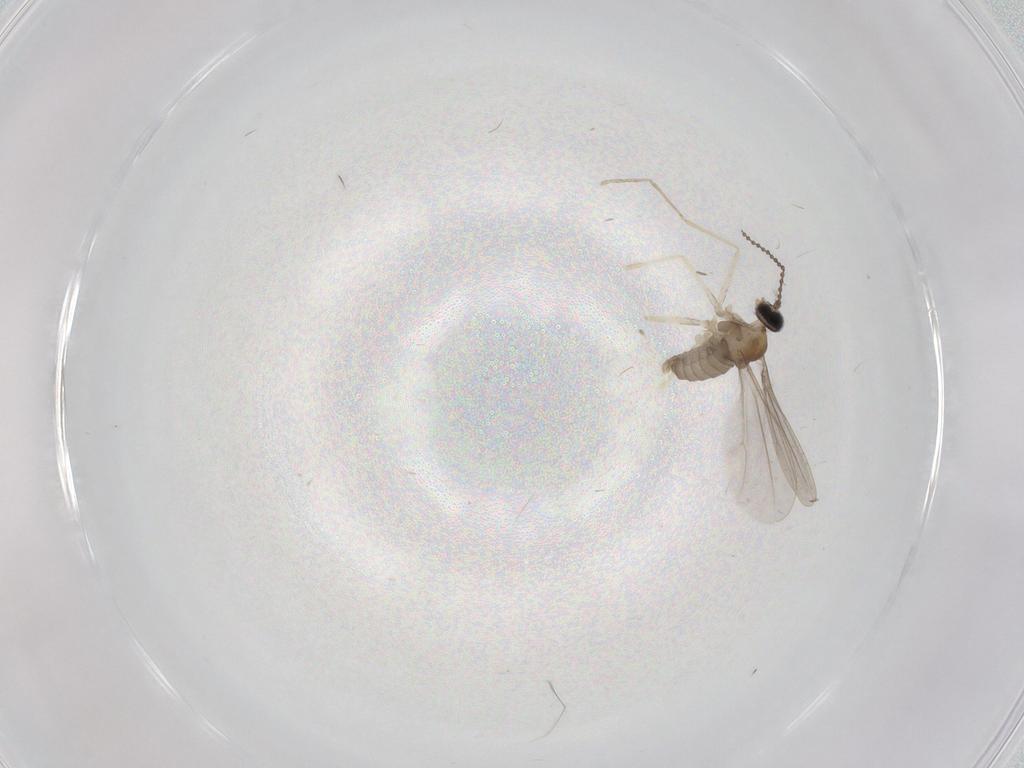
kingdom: Animalia
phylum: Arthropoda
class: Insecta
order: Diptera
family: Cecidomyiidae
